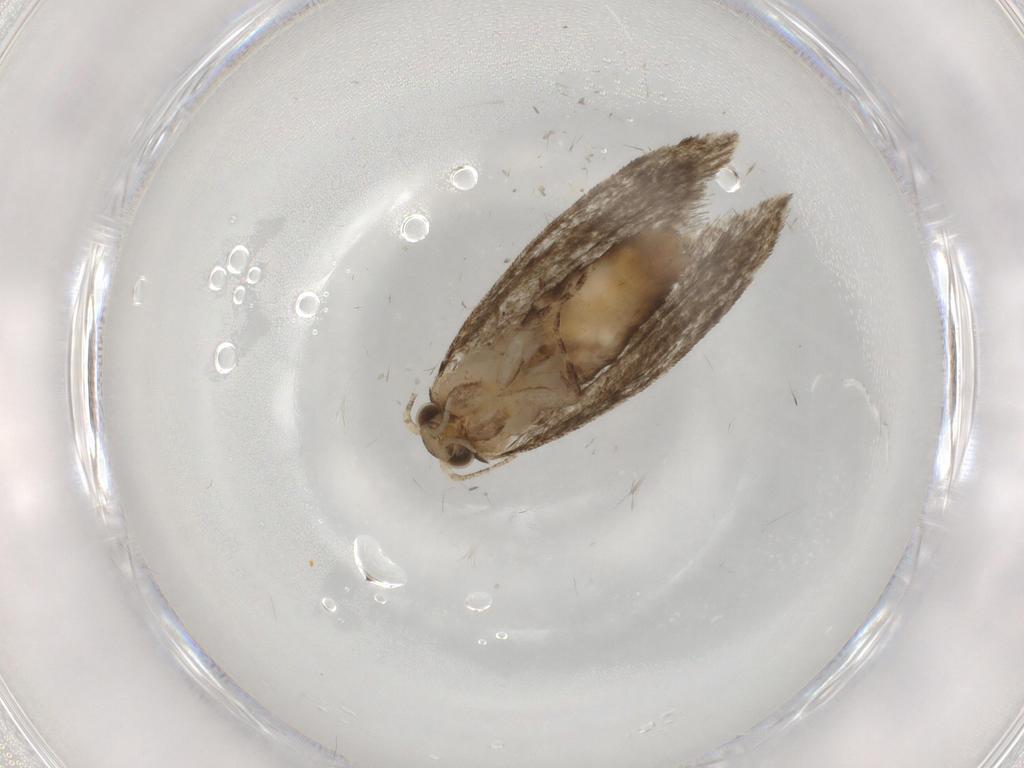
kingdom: Animalia
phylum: Arthropoda
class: Insecta
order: Lepidoptera
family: Tineidae
